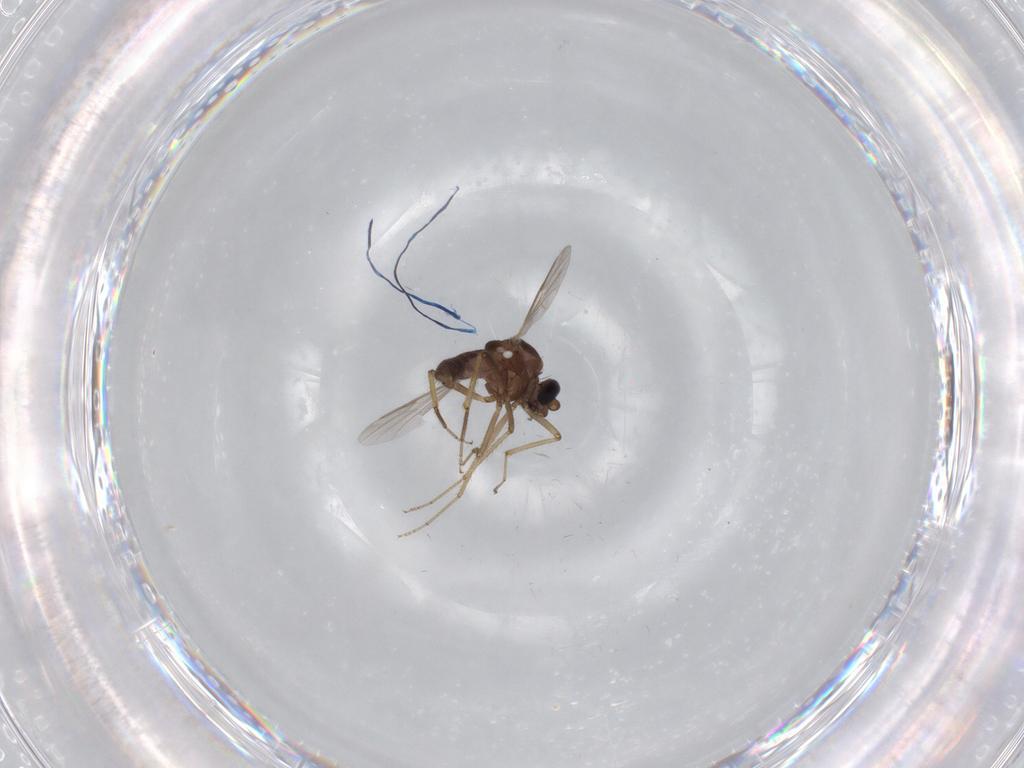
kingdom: Animalia
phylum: Arthropoda
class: Insecta
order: Diptera
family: Ceratopogonidae
